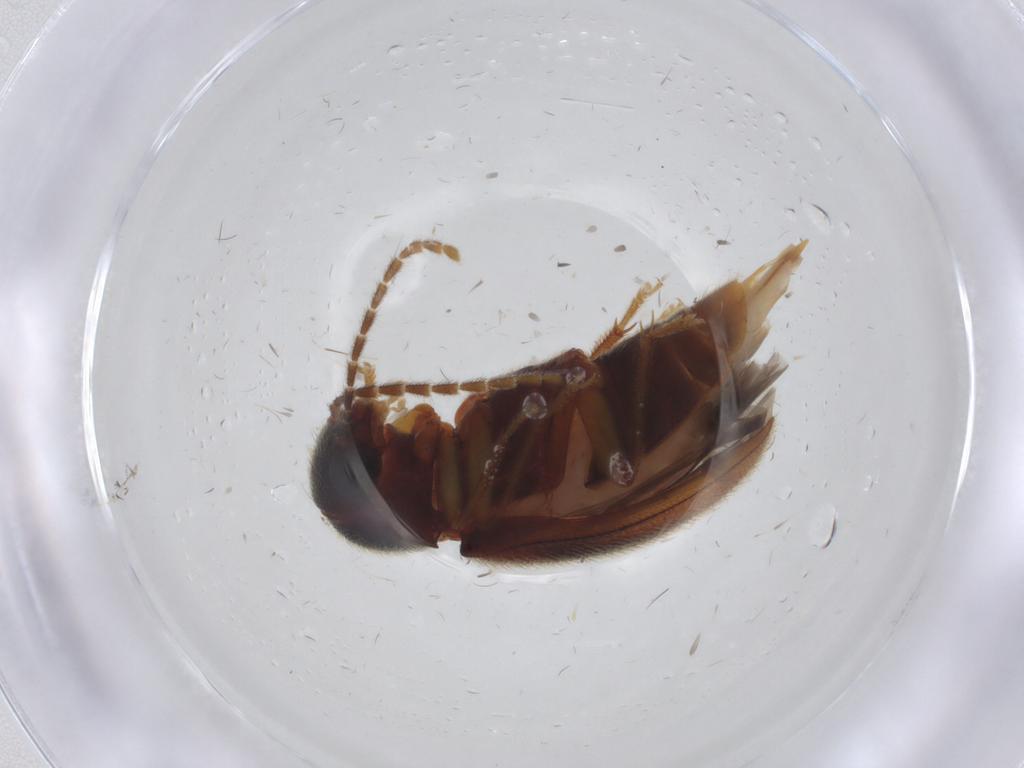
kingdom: Animalia
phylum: Arthropoda
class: Insecta
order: Coleoptera
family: Ptilodactylidae
